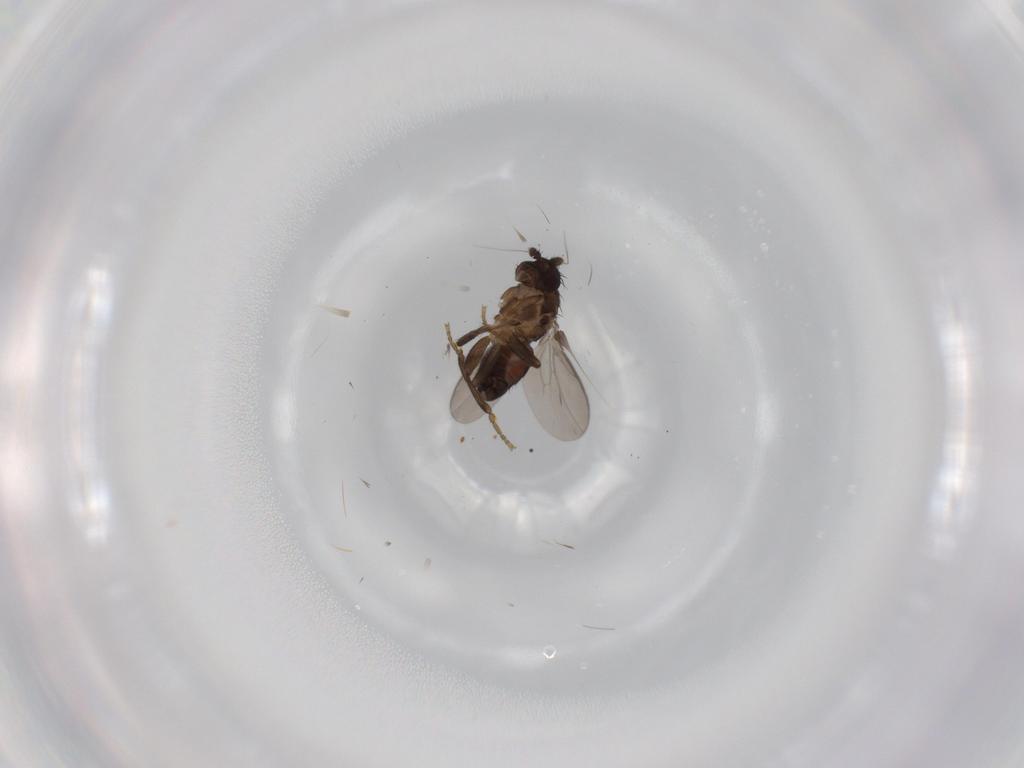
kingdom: Animalia
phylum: Arthropoda
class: Insecta
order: Diptera
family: Sphaeroceridae
